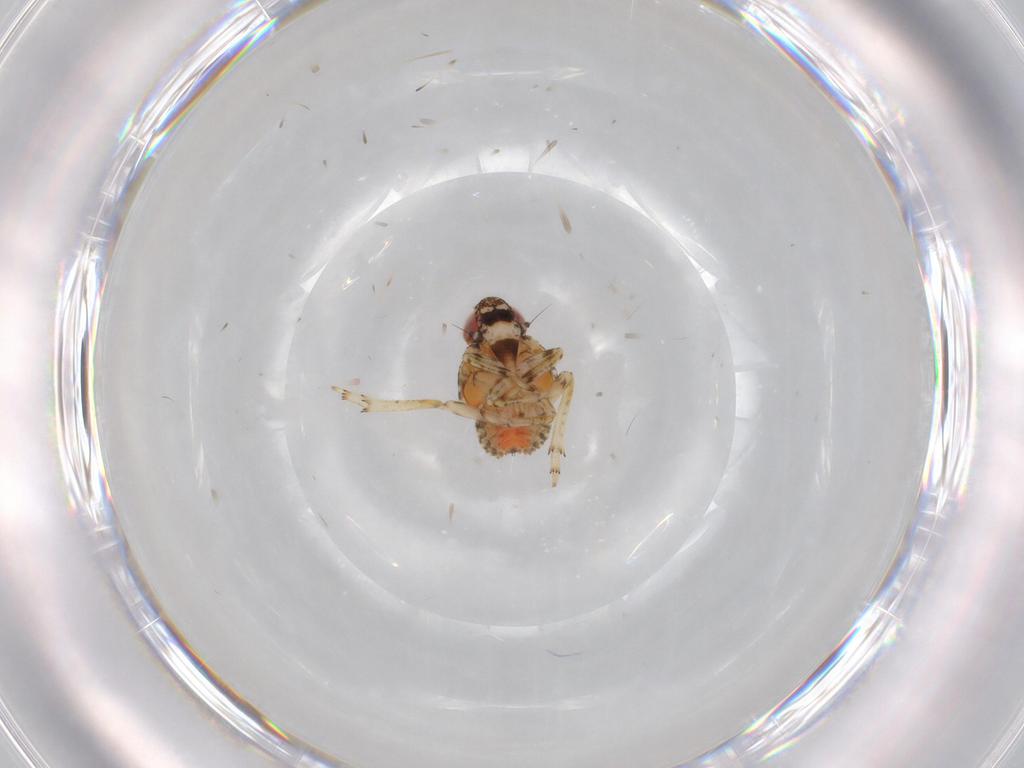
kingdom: Animalia
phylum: Arthropoda
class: Insecta
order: Hemiptera
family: Issidae
